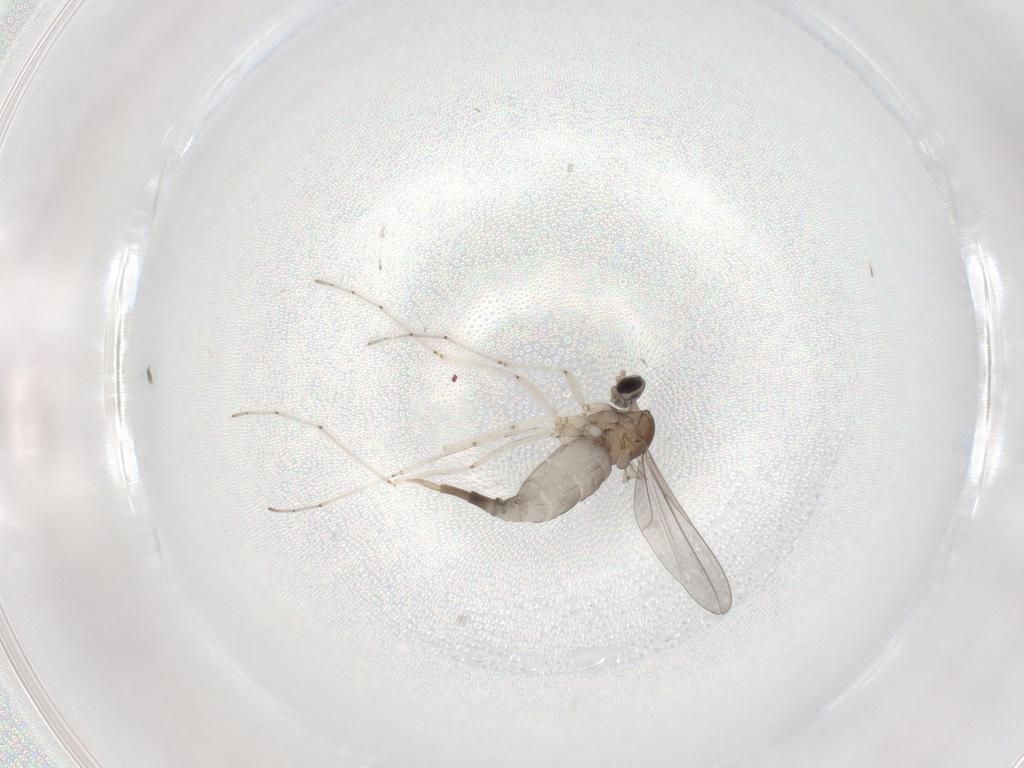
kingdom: Animalia
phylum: Arthropoda
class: Insecta
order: Diptera
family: Cecidomyiidae
